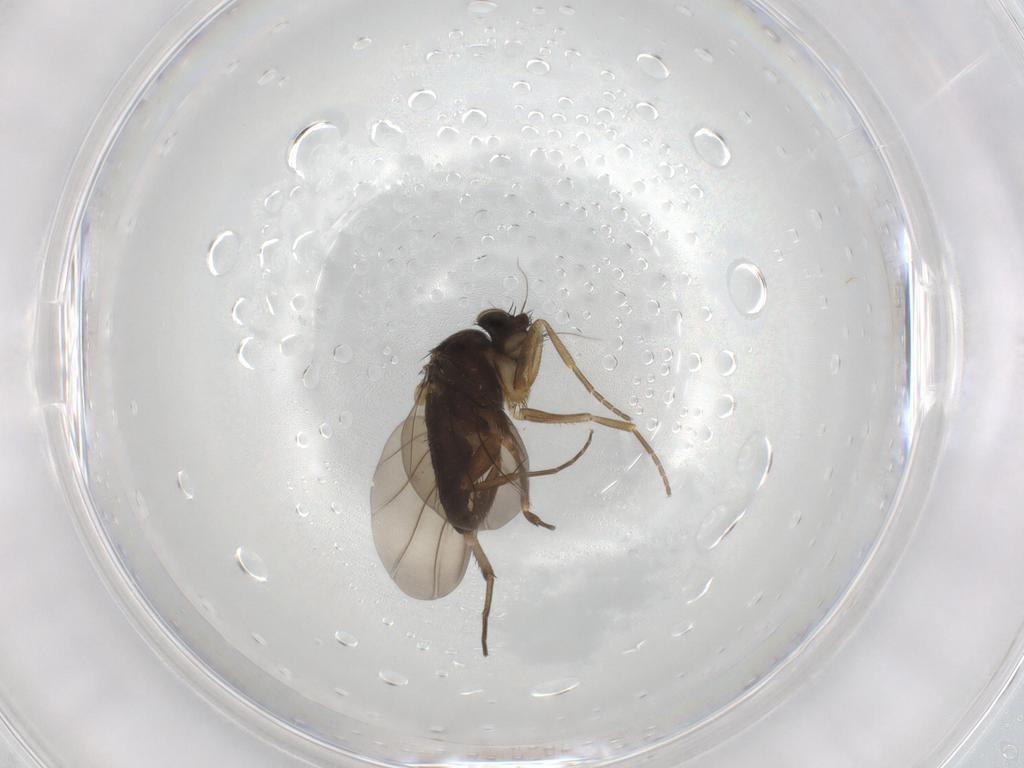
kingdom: Animalia
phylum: Arthropoda
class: Insecta
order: Diptera
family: Phoridae
